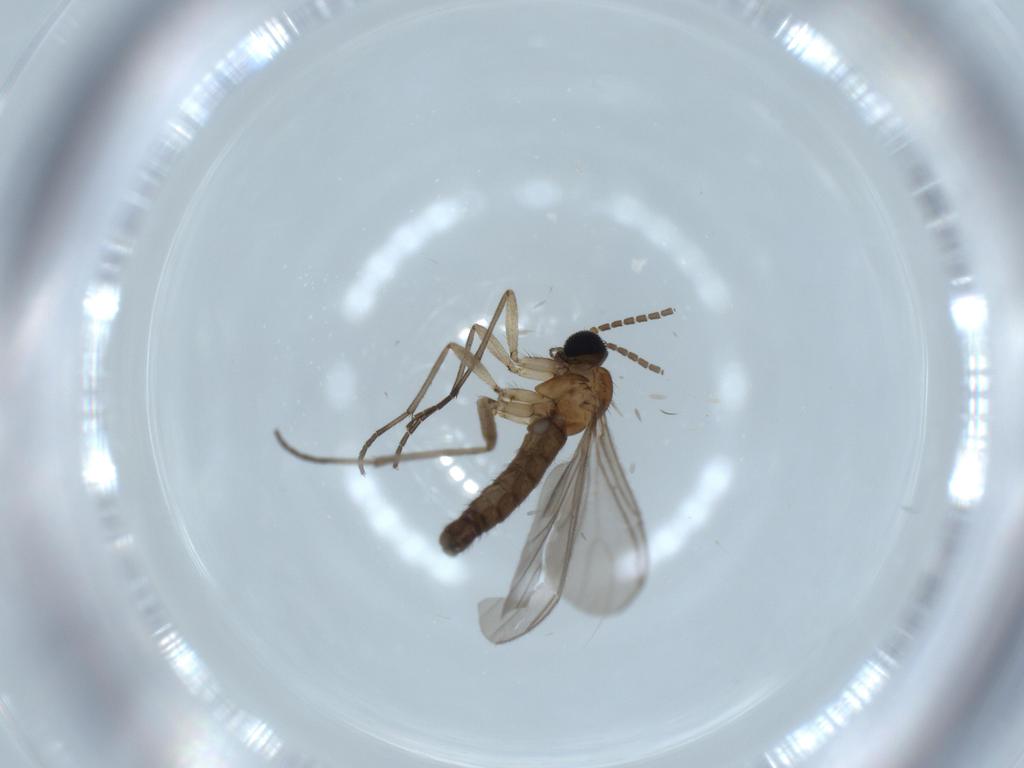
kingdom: Animalia
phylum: Arthropoda
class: Insecta
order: Diptera
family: Sciaridae
